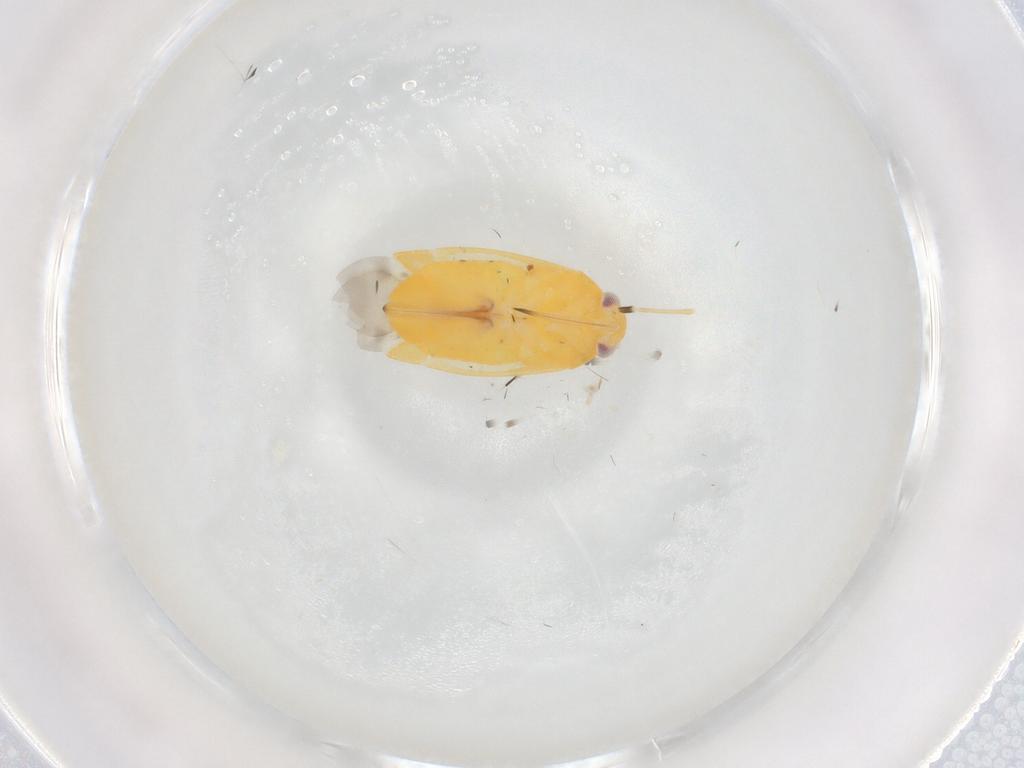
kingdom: Animalia
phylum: Arthropoda
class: Insecta
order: Hemiptera
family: Miridae
